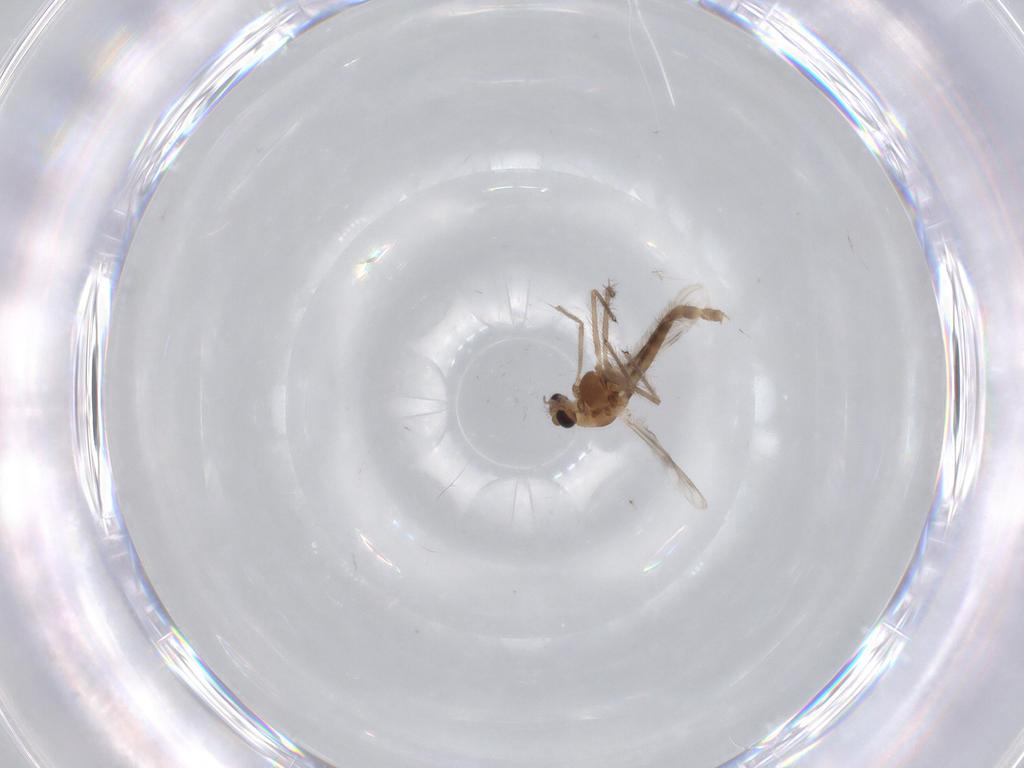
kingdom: Animalia
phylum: Arthropoda
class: Insecta
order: Diptera
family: Chironomidae
